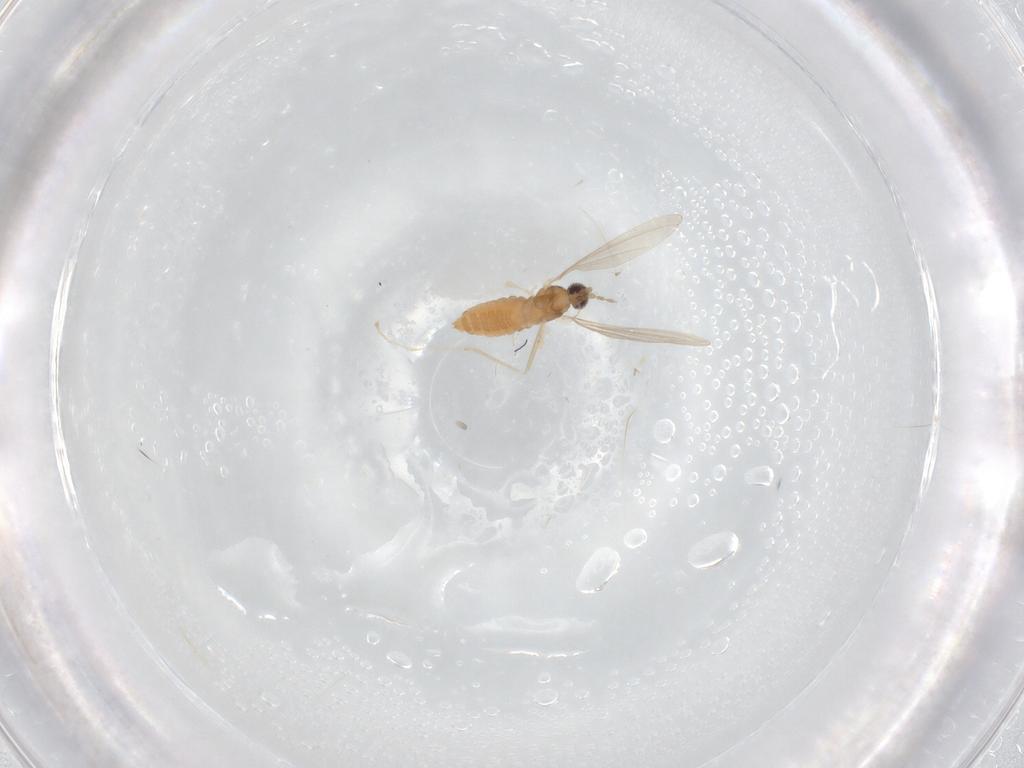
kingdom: Animalia
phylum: Arthropoda
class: Insecta
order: Diptera
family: Cecidomyiidae
